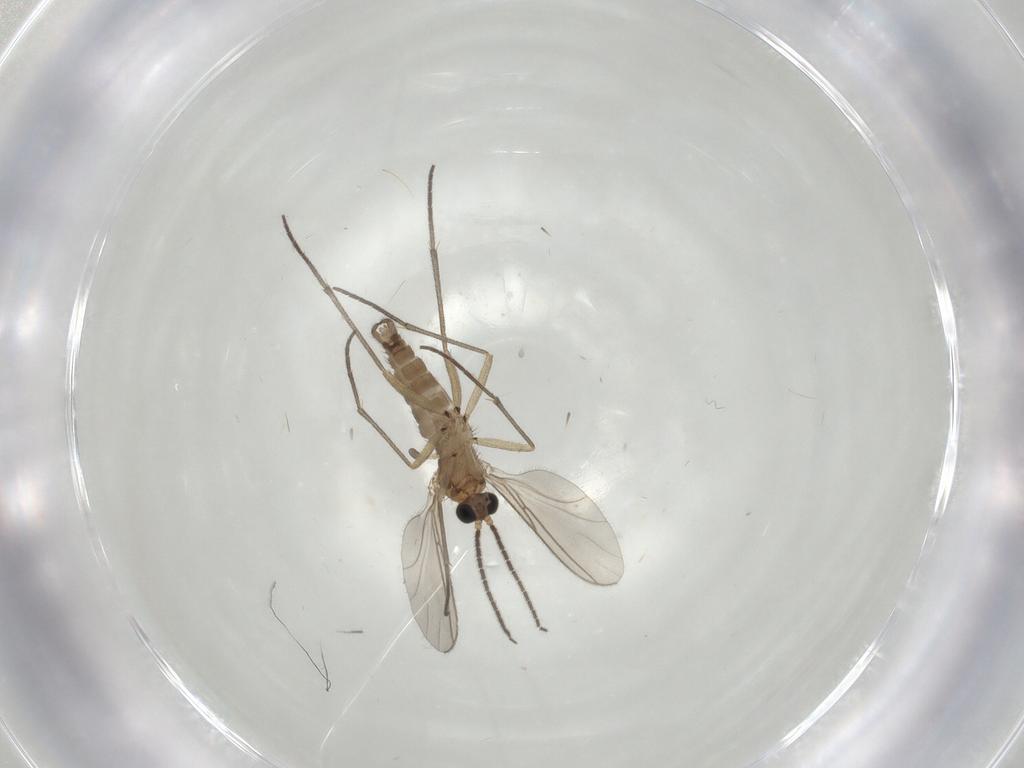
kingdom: Animalia
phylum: Arthropoda
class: Insecta
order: Diptera
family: Sciaridae
